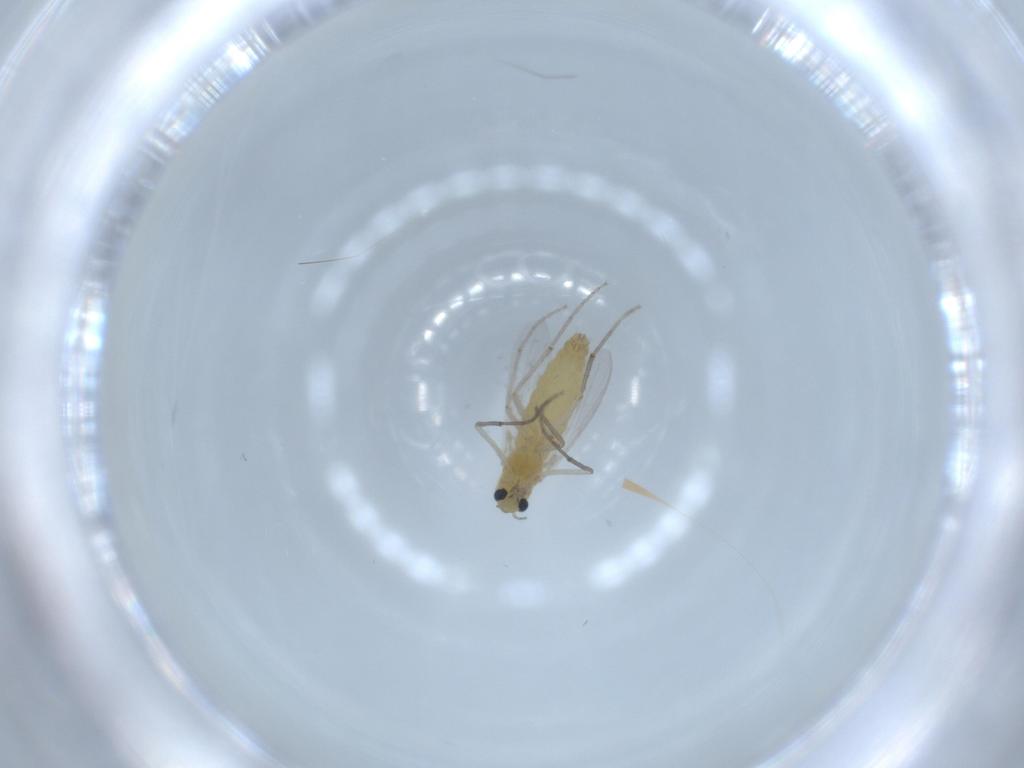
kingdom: Animalia
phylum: Arthropoda
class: Insecta
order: Diptera
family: Chironomidae
